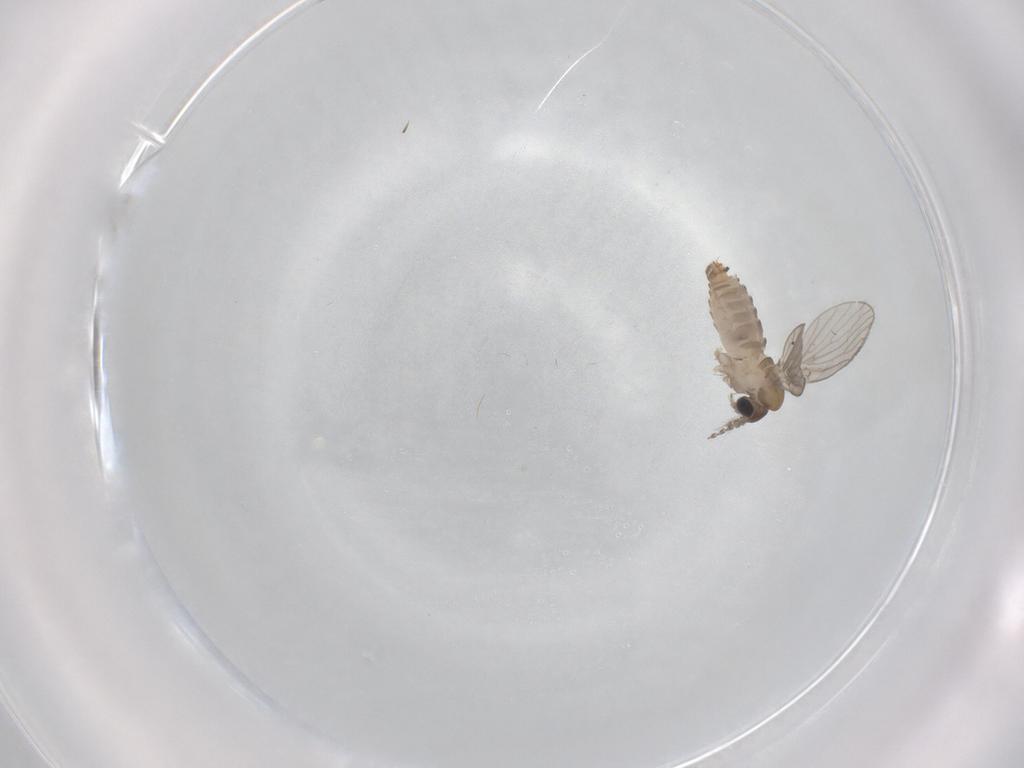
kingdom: Animalia
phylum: Arthropoda
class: Insecta
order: Diptera
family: Psychodidae
